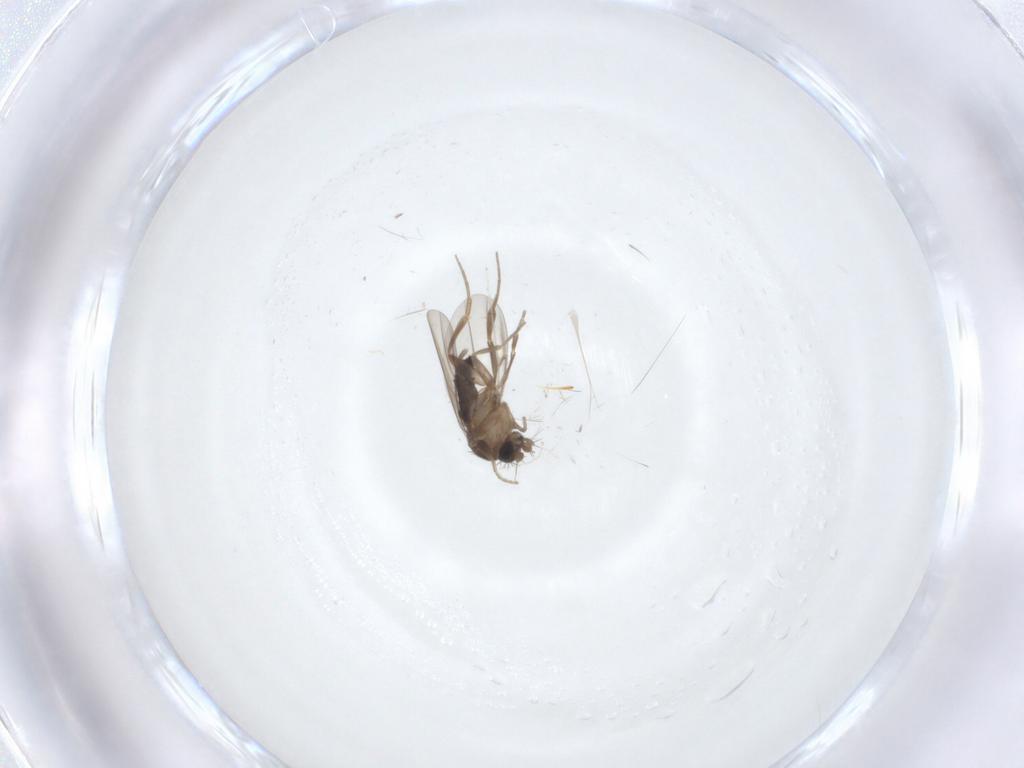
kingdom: Animalia
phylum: Arthropoda
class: Insecta
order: Diptera
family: Phoridae
